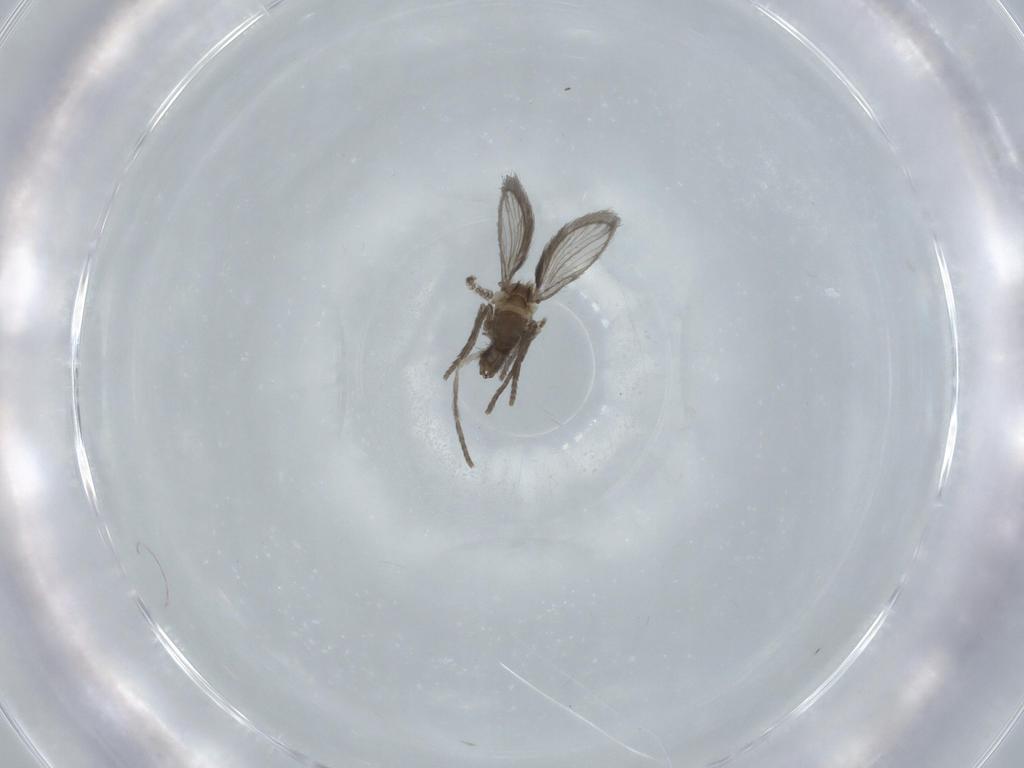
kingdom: Animalia
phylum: Arthropoda
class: Insecta
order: Diptera
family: Psychodidae
